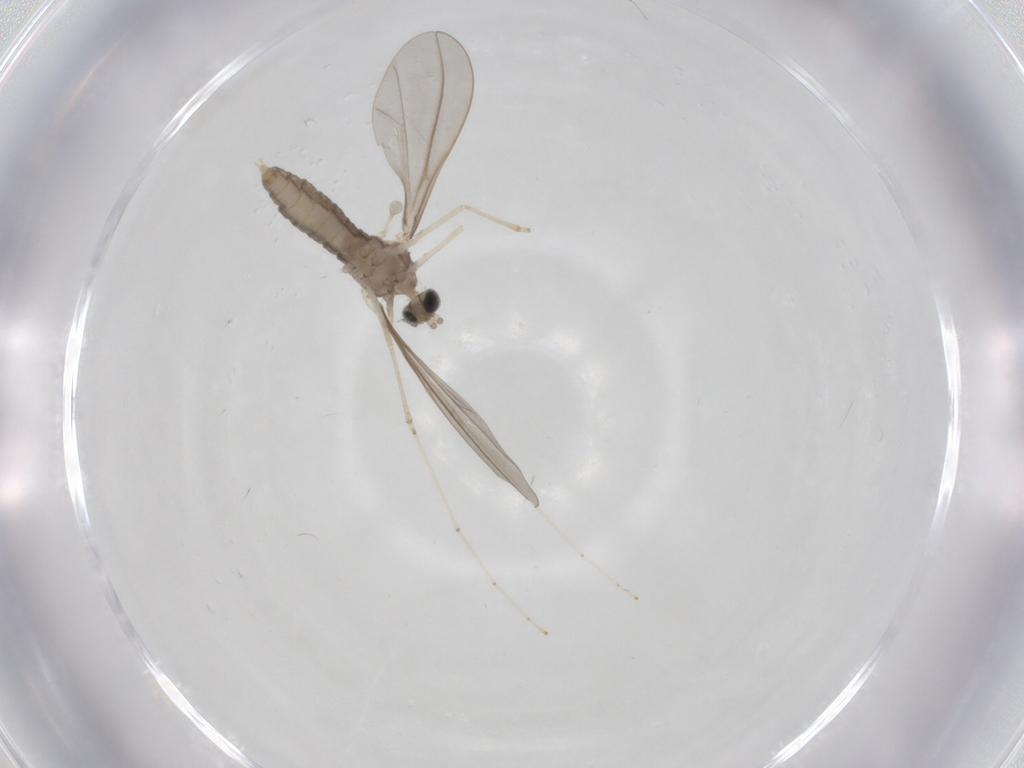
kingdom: Animalia
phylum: Arthropoda
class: Insecta
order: Diptera
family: Cecidomyiidae
